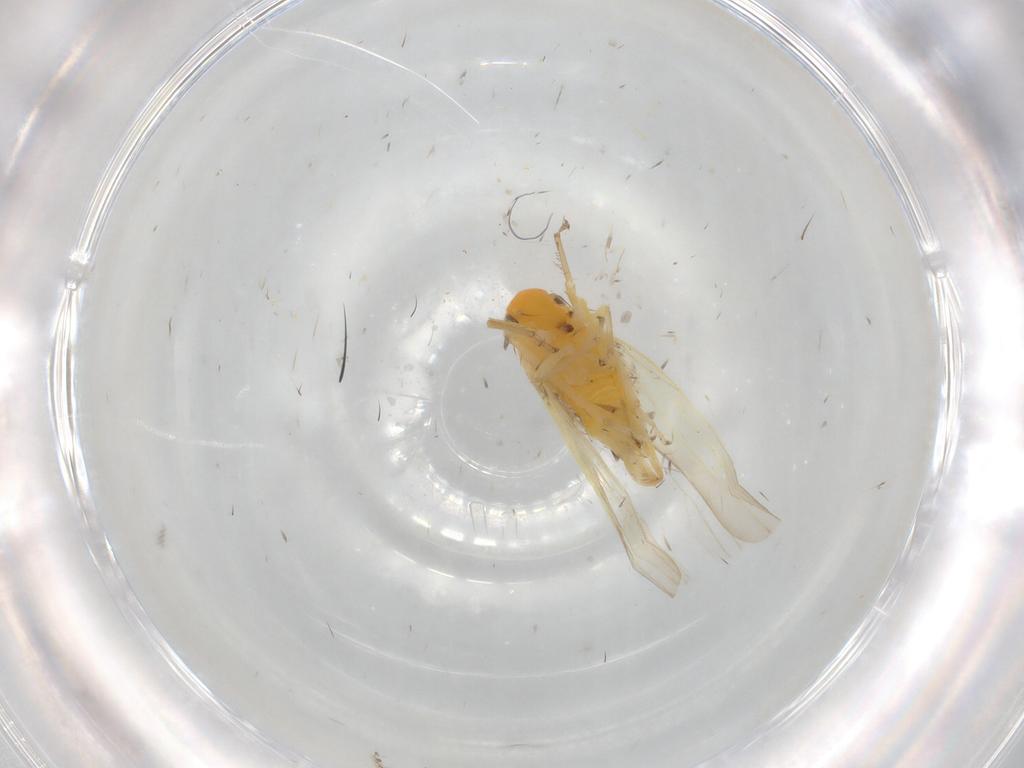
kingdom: Animalia
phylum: Arthropoda
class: Insecta
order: Hemiptera
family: Cicadellidae
